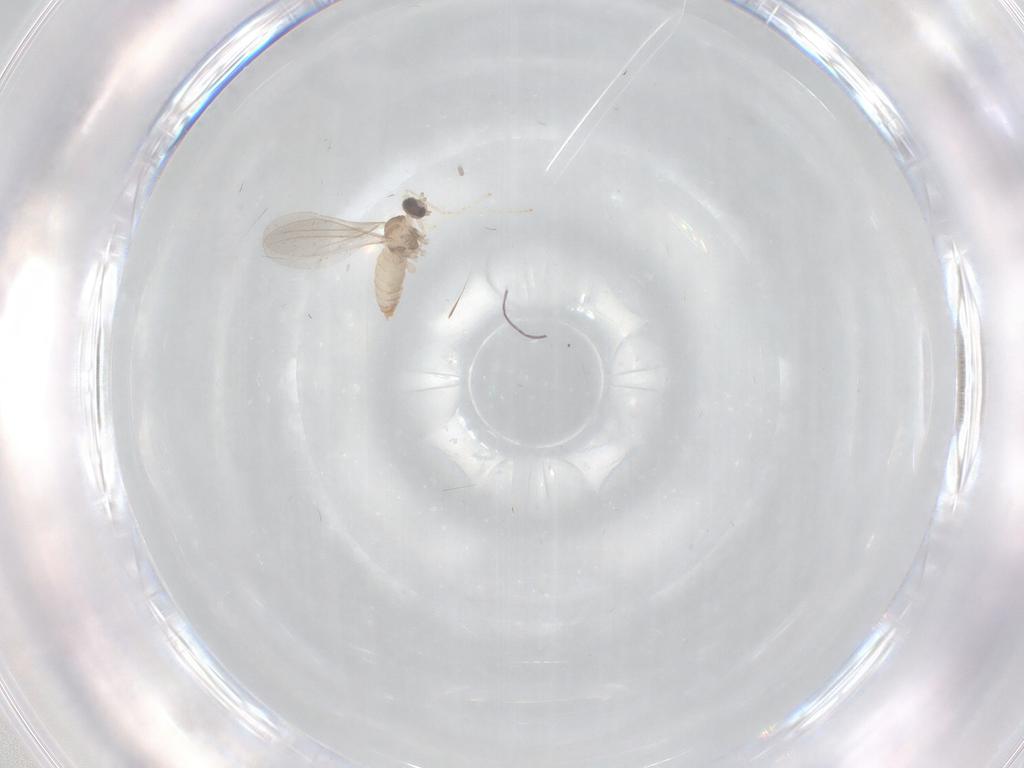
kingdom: Animalia
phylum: Arthropoda
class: Insecta
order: Diptera
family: Cecidomyiidae
